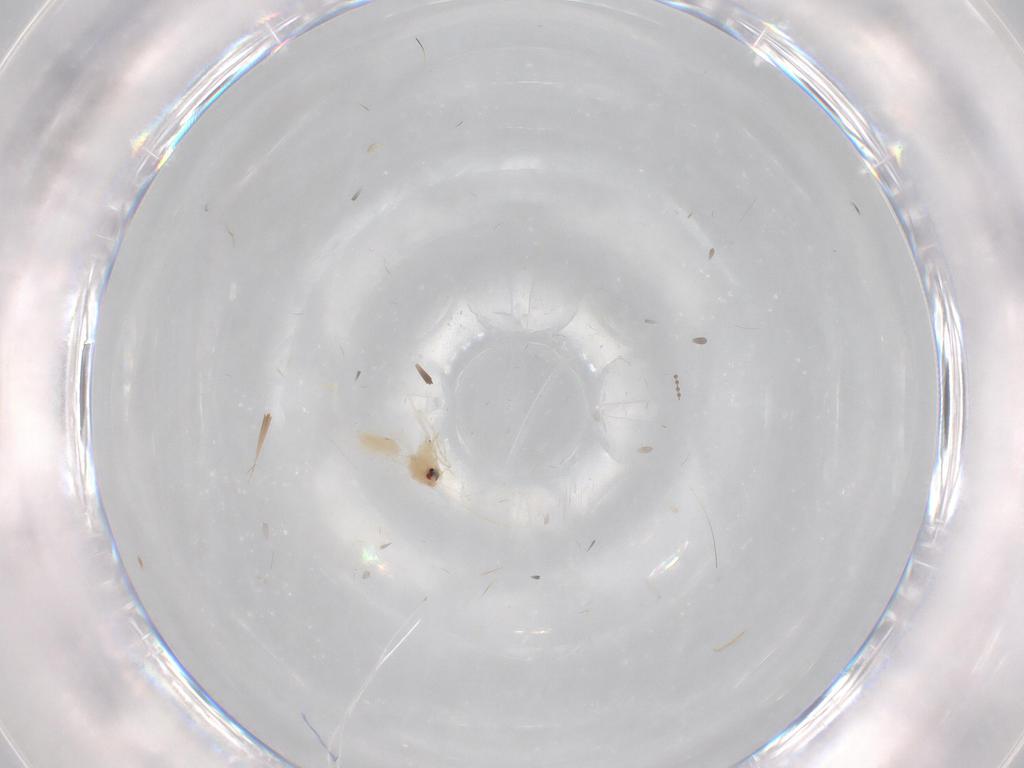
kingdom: Animalia
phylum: Arthropoda
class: Insecta
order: Hemiptera
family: Aleyrodidae
